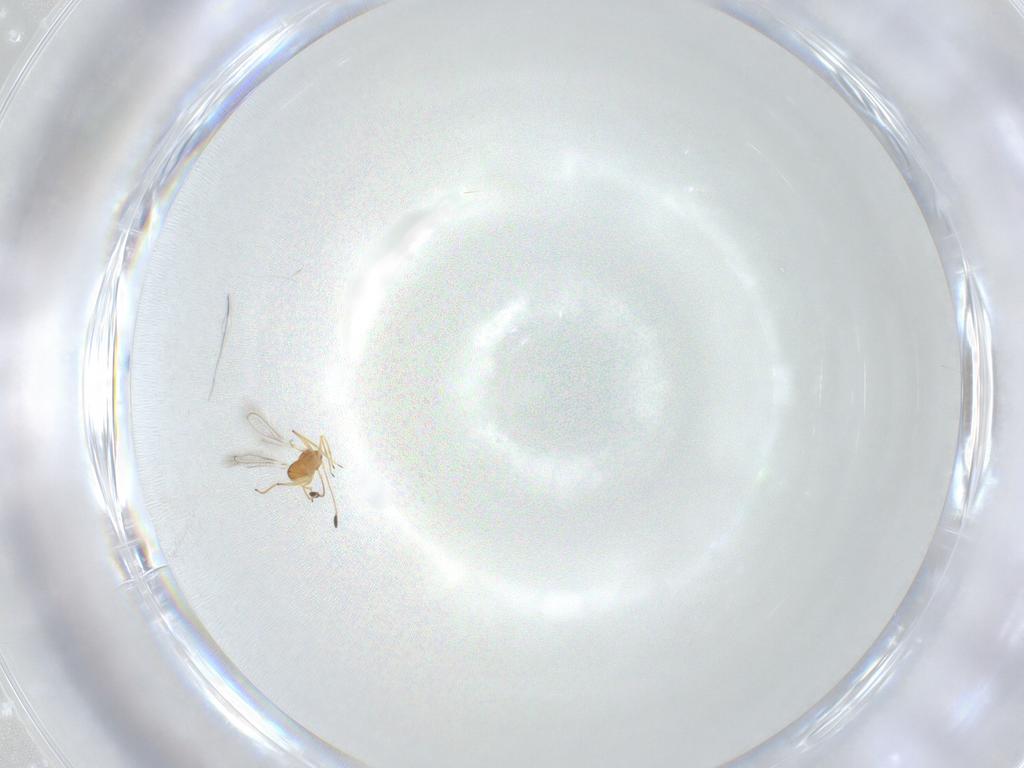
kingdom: Animalia
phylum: Arthropoda
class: Insecta
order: Hymenoptera
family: Mymaridae
